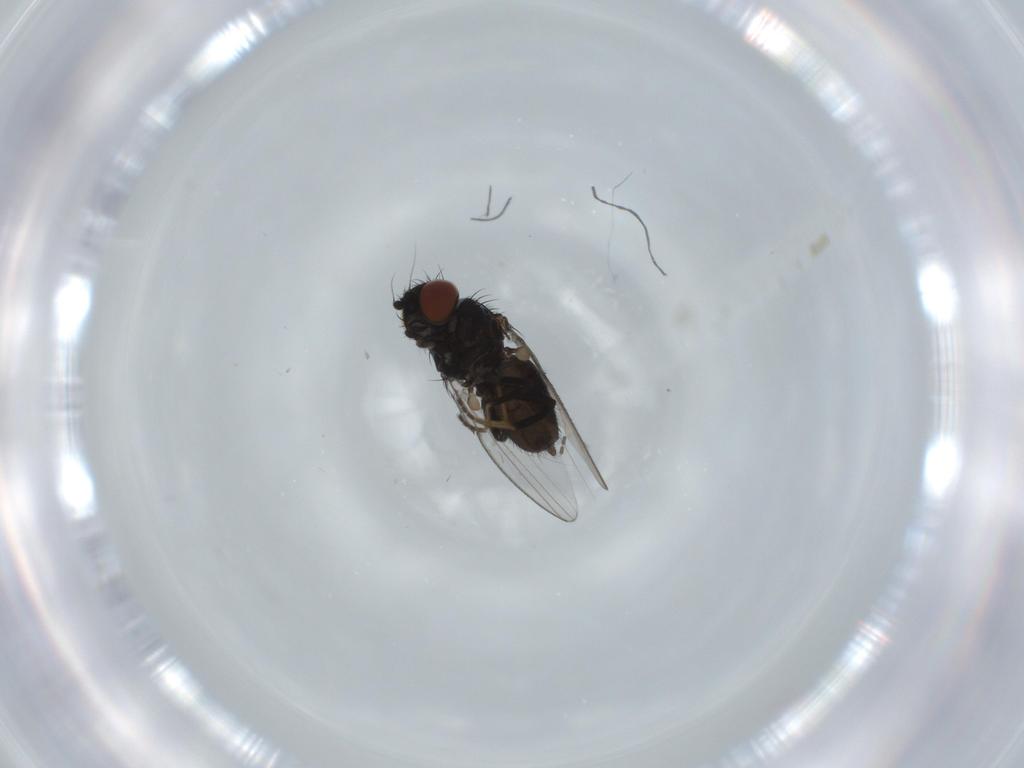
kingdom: Animalia
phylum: Arthropoda
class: Insecta
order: Diptera
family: Milichiidae
